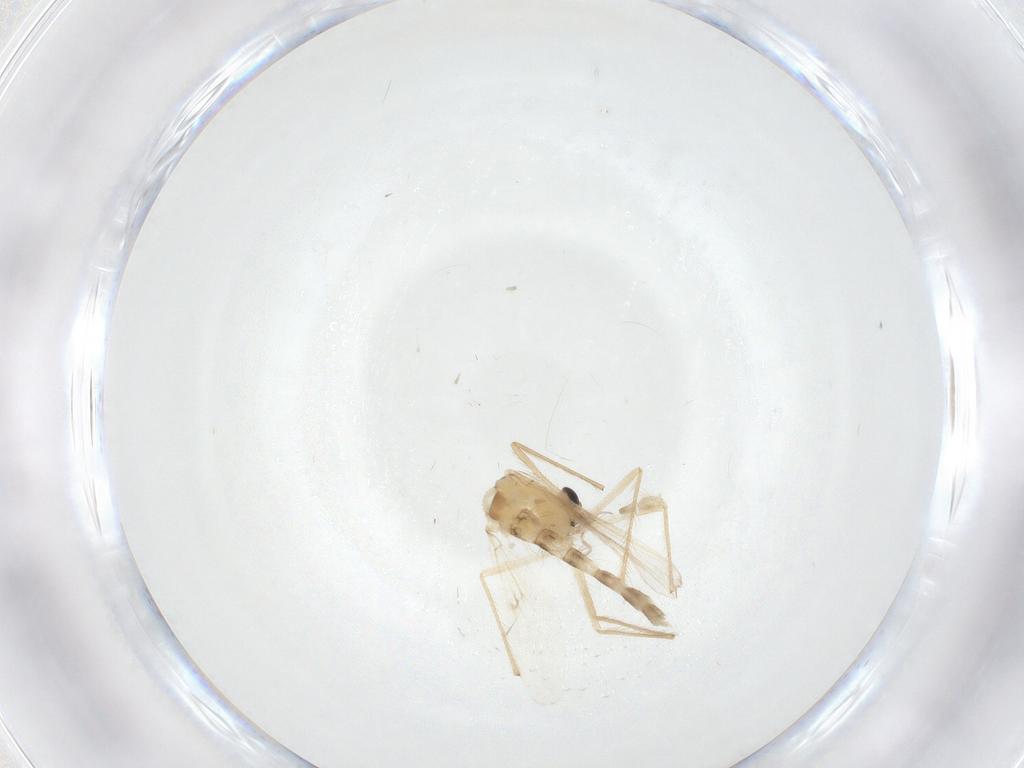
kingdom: Animalia
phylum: Arthropoda
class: Insecta
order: Diptera
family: Chironomidae
